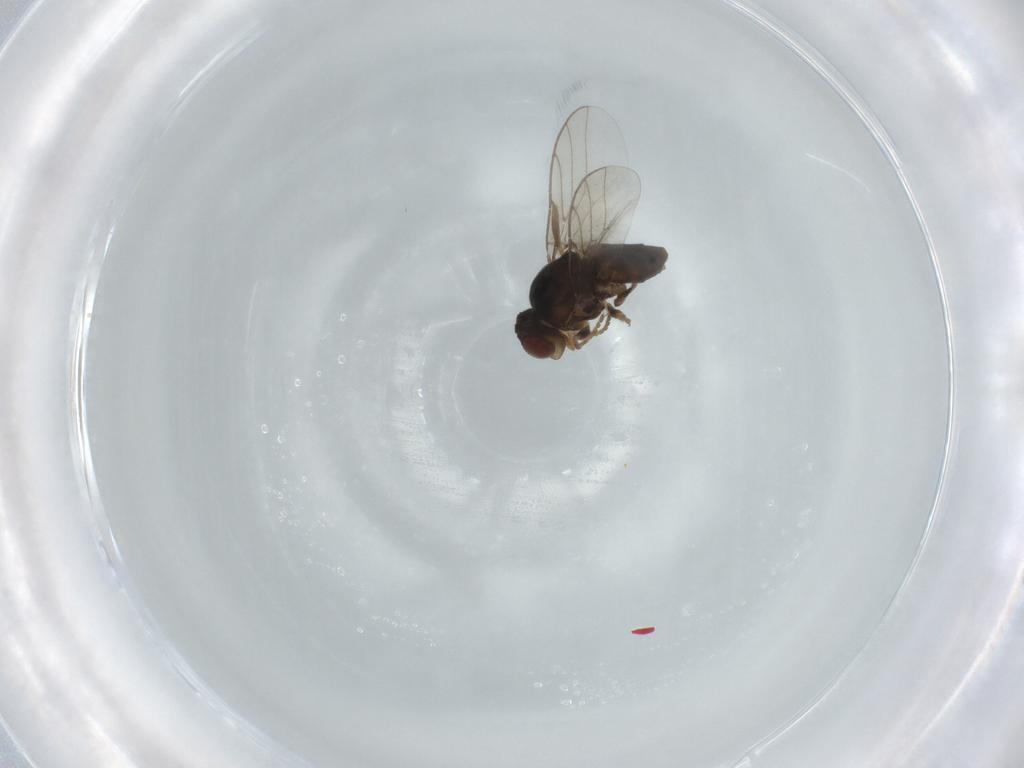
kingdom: Animalia
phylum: Arthropoda
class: Insecta
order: Diptera
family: Chloropidae
